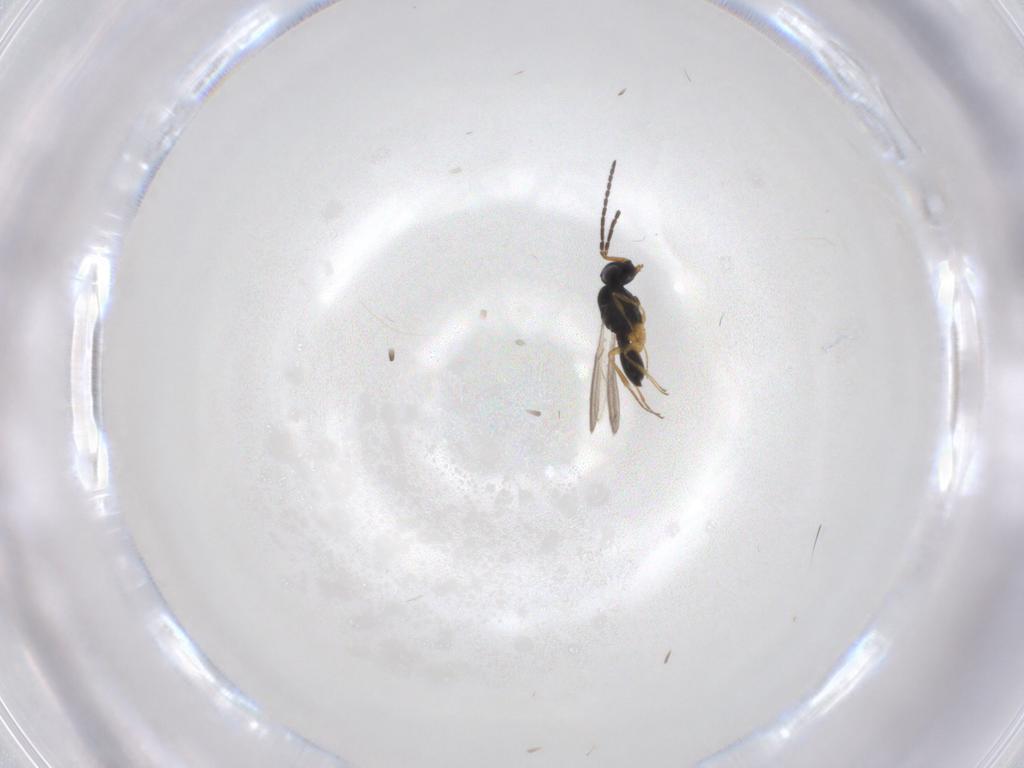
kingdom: Animalia
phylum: Arthropoda
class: Insecta
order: Hymenoptera
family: Scelionidae
